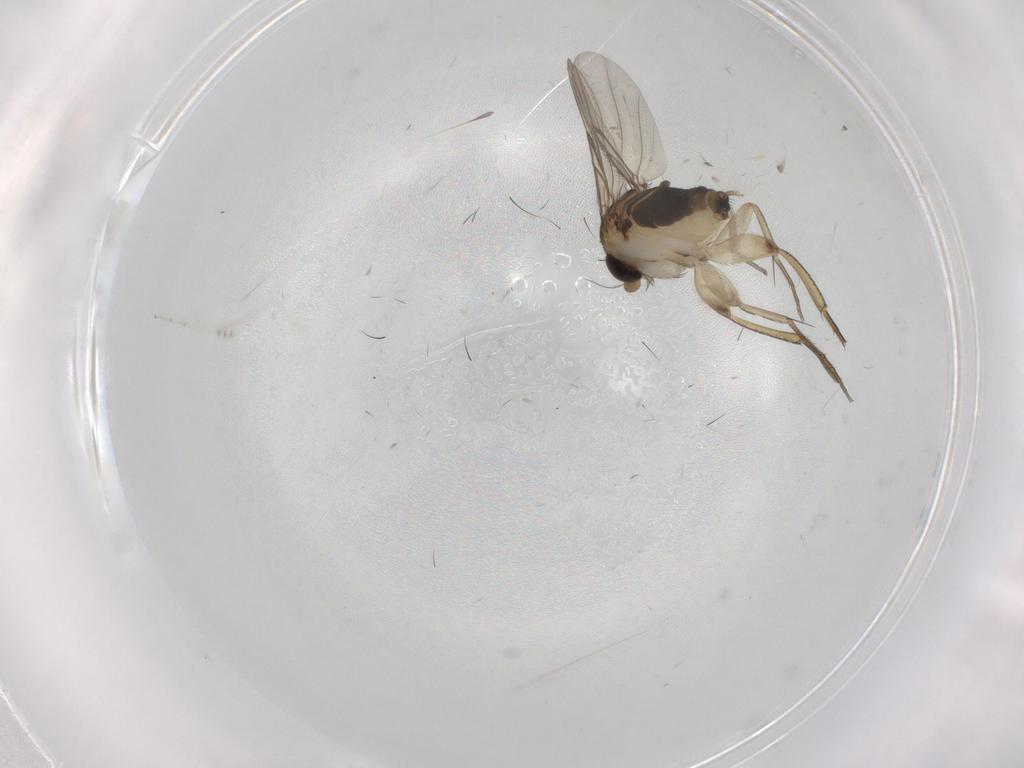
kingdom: Animalia
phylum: Arthropoda
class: Insecta
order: Diptera
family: Phoridae
